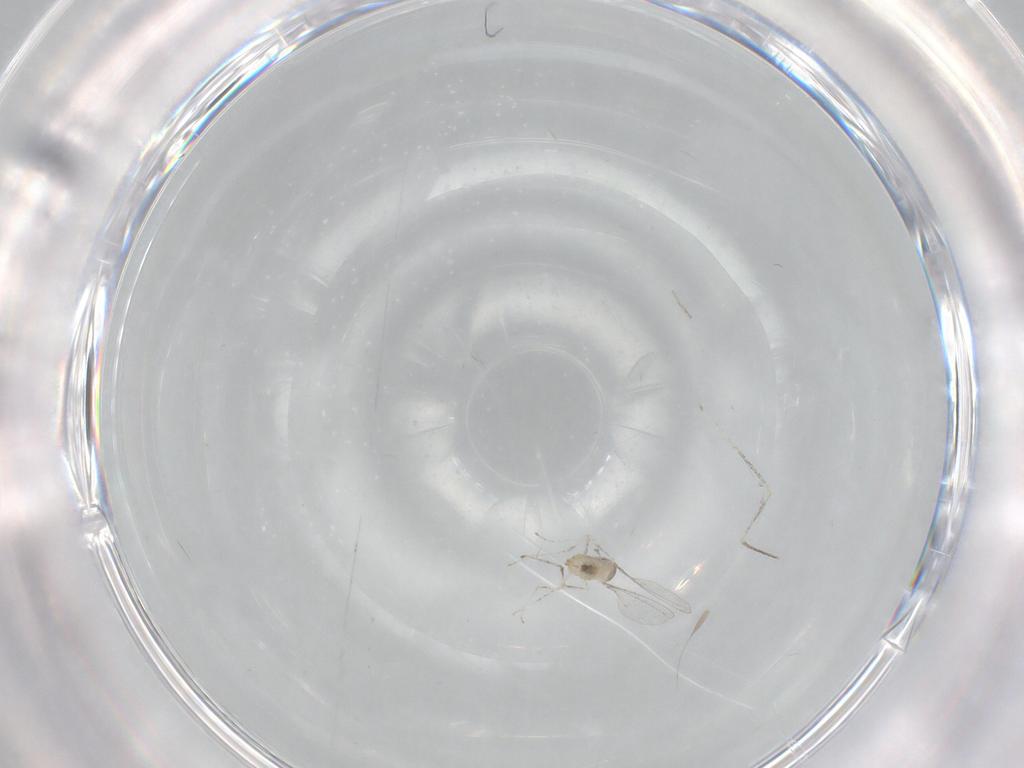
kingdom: Animalia
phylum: Arthropoda
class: Insecta
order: Diptera
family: Cecidomyiidae
